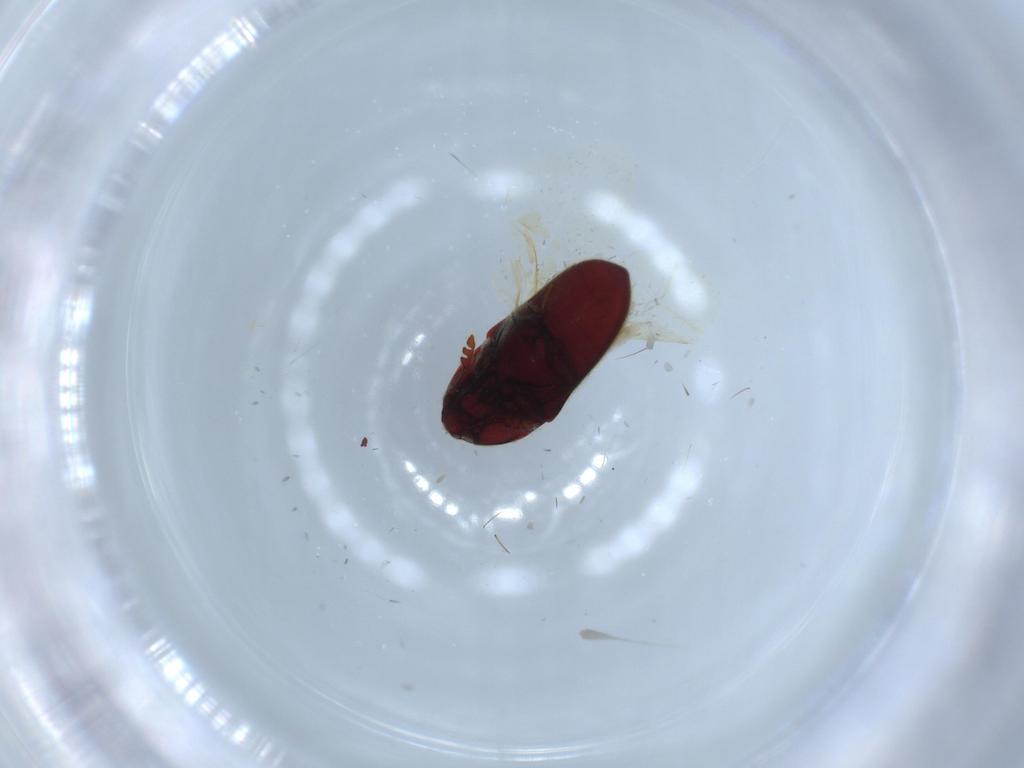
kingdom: Animalia
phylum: Arthropoda
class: Insecta
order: Coleoptera
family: Throscidae
